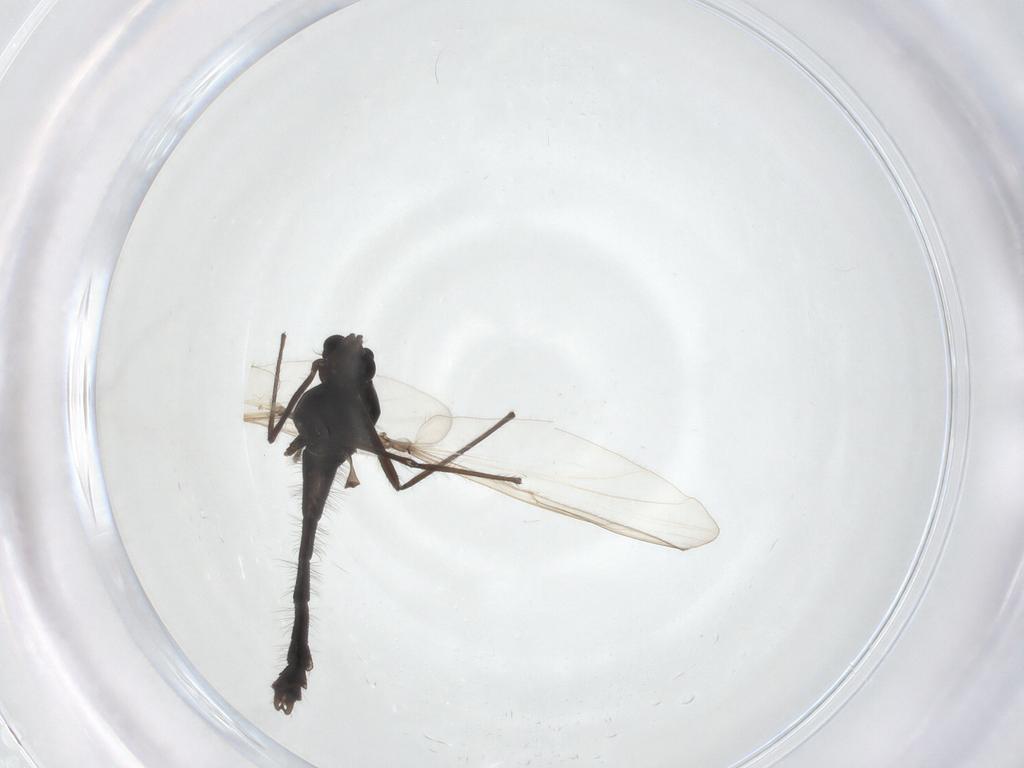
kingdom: Animalia
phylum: Arthropoda
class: Insecta
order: Diptera
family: Chironomidae
